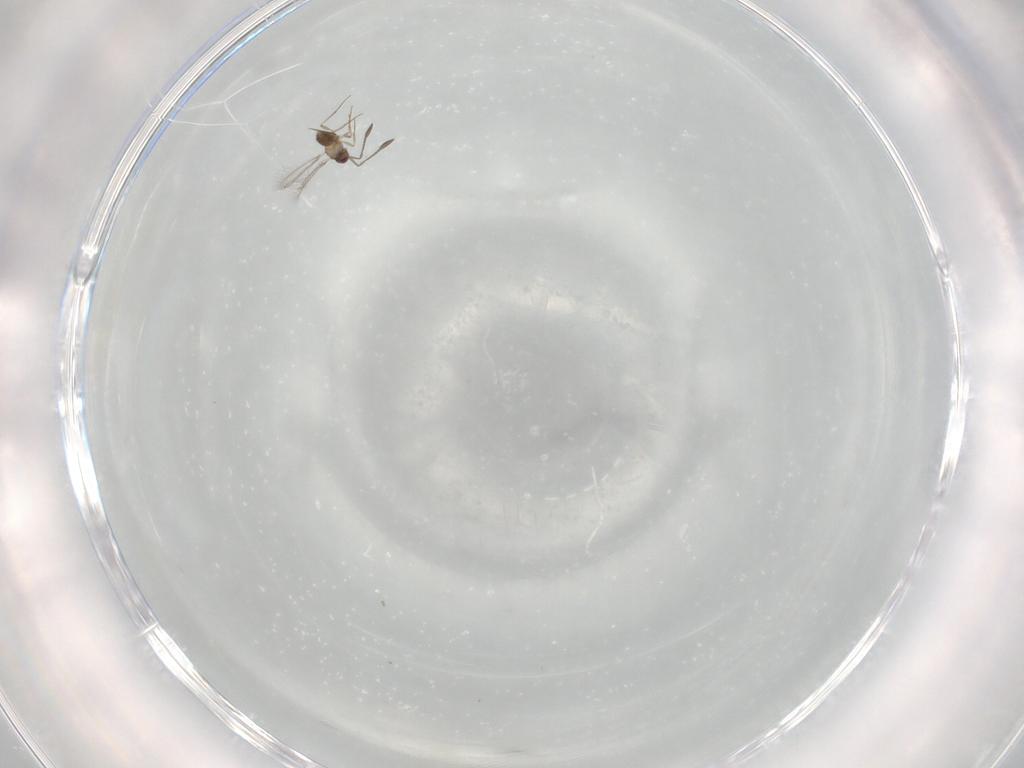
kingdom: Animalia
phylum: Arthropoda
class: Insecta
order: Hymenoptera
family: Mymaridae
